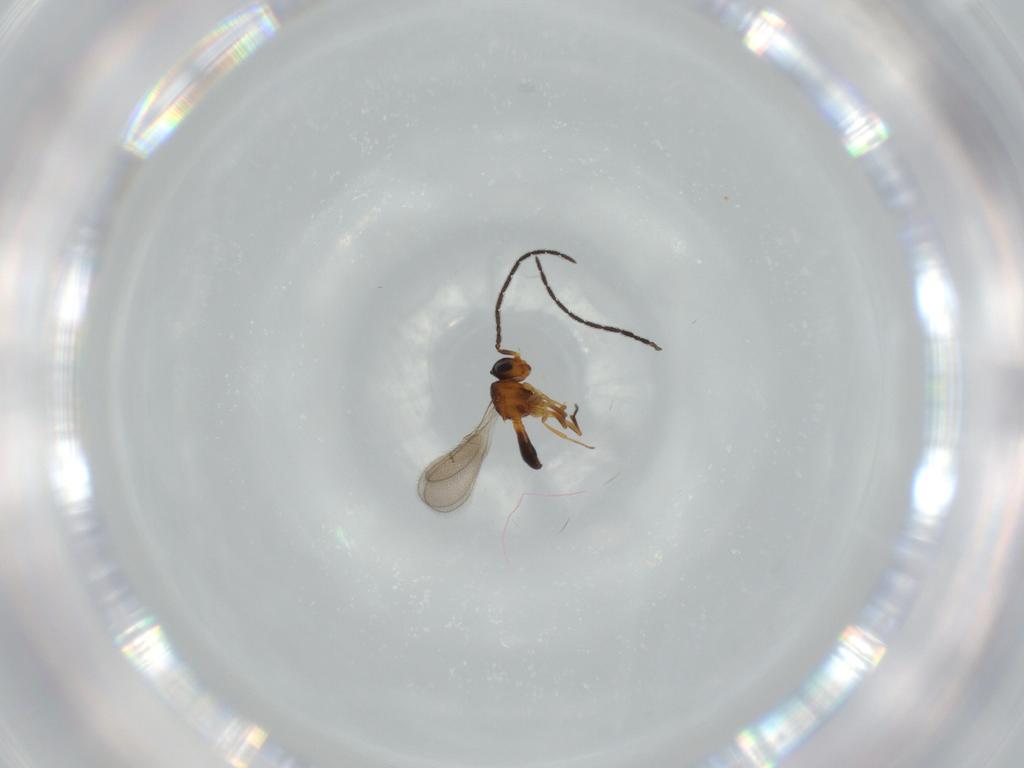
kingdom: Animalia
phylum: Arthropoda
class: Insecta
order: Hymenoptera
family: Scelionidae
